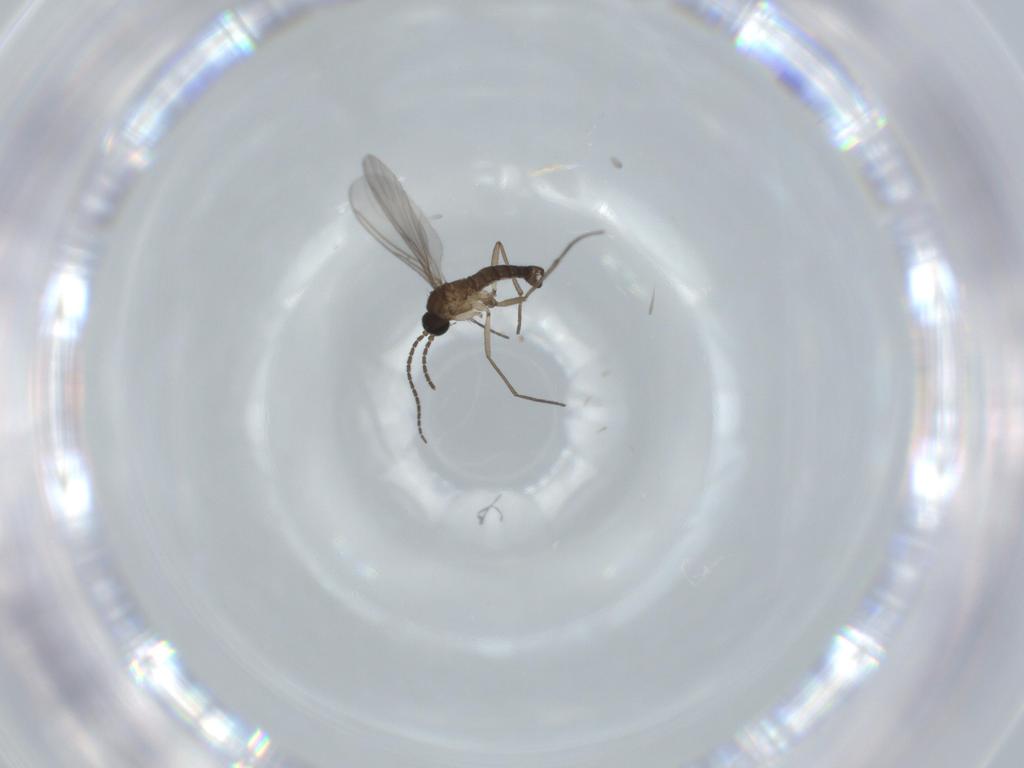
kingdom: Animalia
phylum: Arthropoda
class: Insecta
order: Diptera
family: Sciaridae
